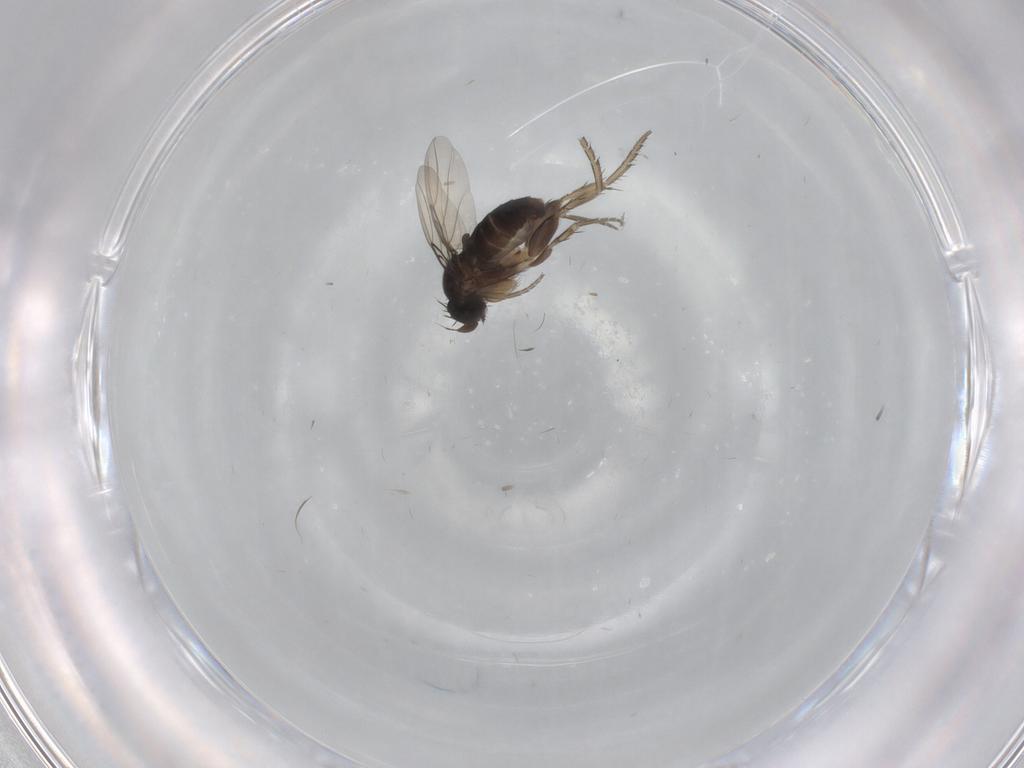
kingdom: Animalia
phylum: Arthropoda
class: Insecta
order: Diptera
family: Phoridae
